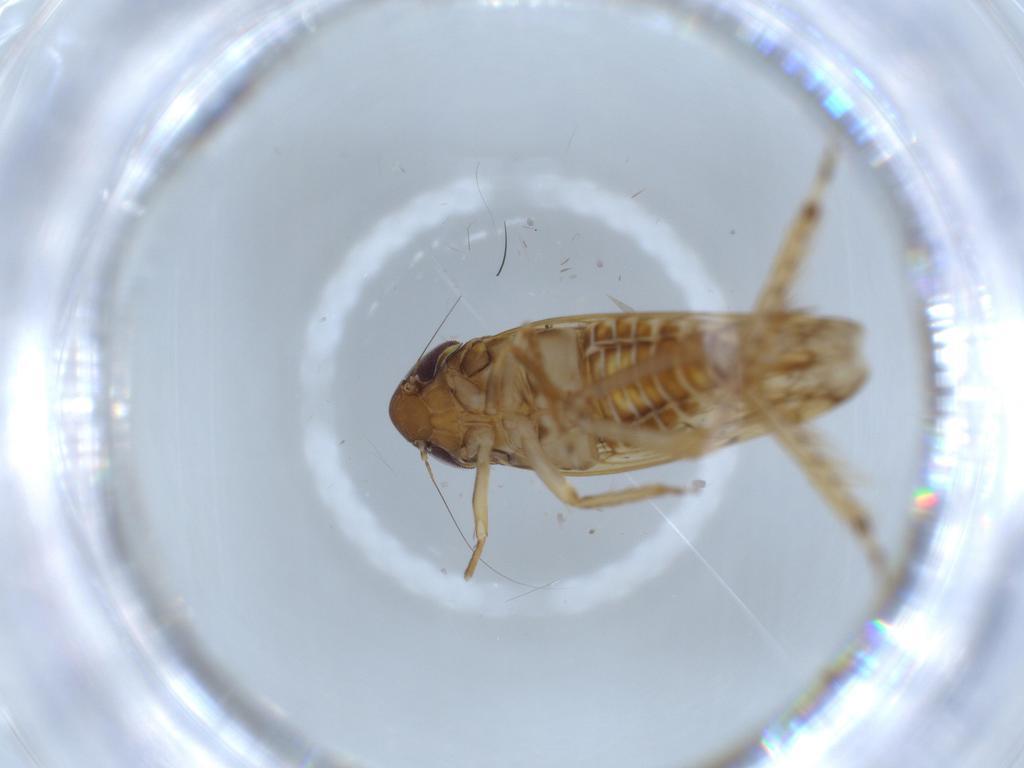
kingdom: Animalia
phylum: Arthropoda
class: Insecta
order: Hemiptera
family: Cicadellidae
